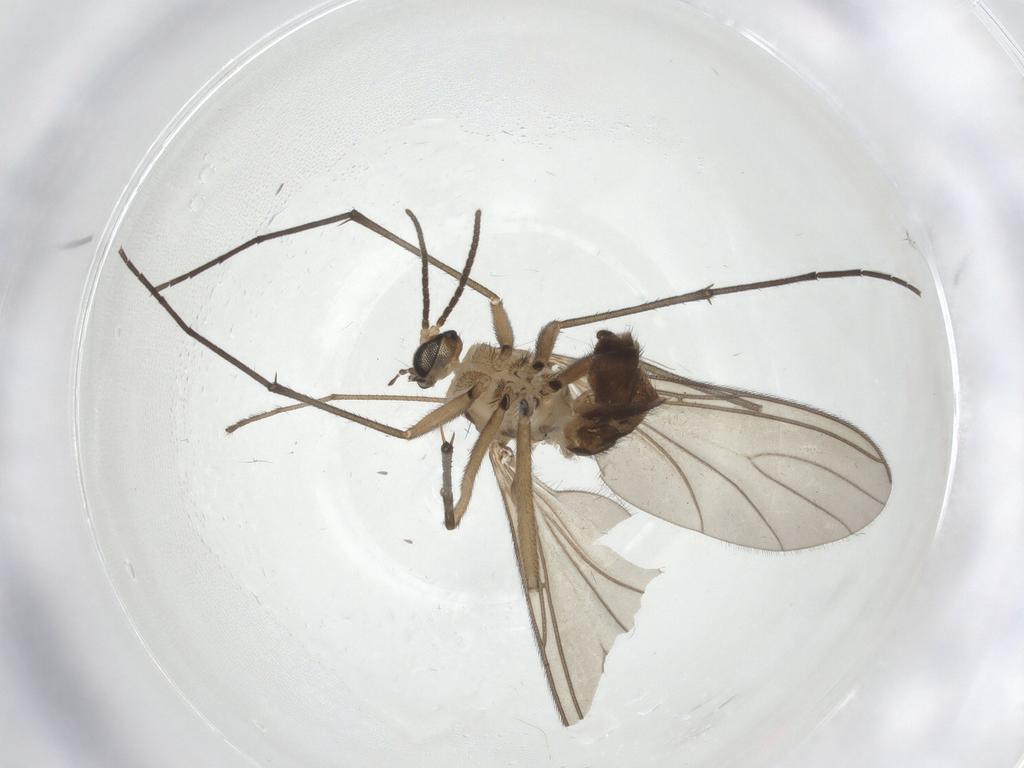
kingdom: Animalia
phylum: Arthropoda
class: Insecta
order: Diptera
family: Sciaridae
